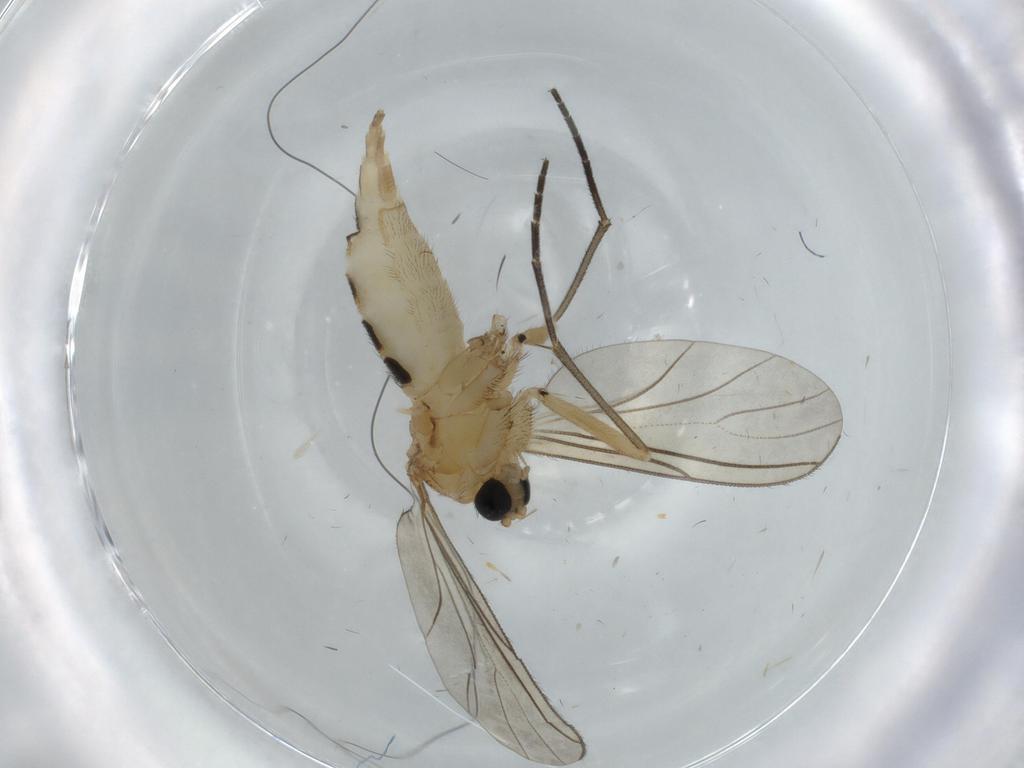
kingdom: Animalia
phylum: Arthropoda
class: Insecta
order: Diptera
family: Sciaridae
